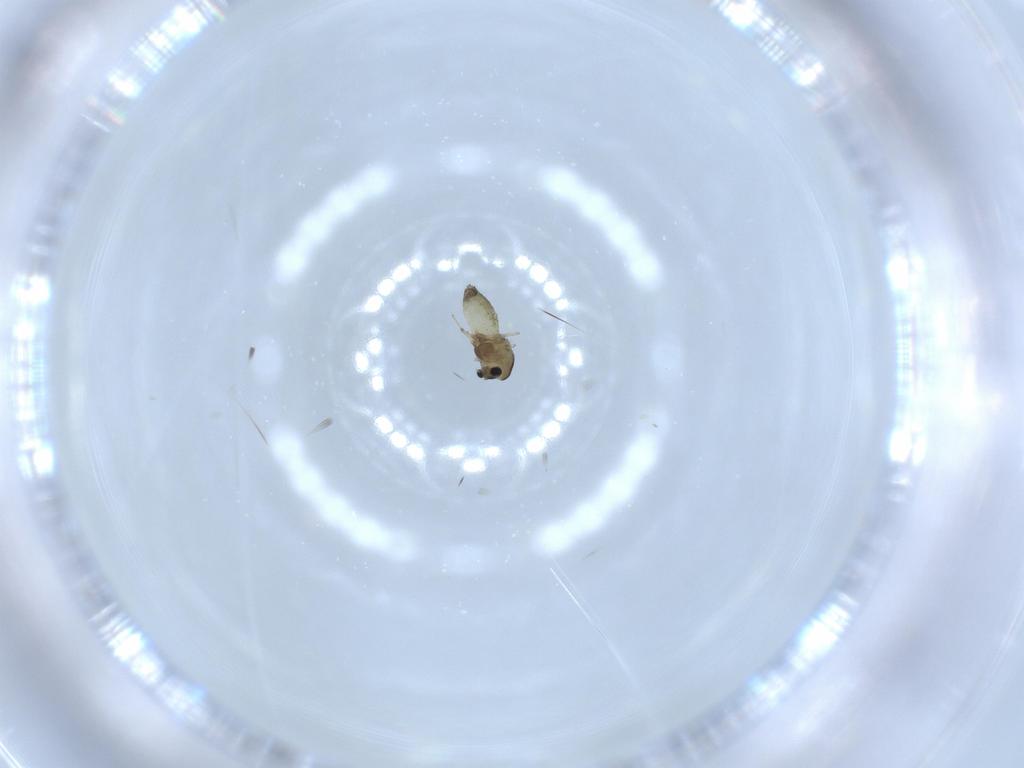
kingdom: Animalia
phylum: Arthropoda
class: Insecta
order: Diptera
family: Chironomidae
